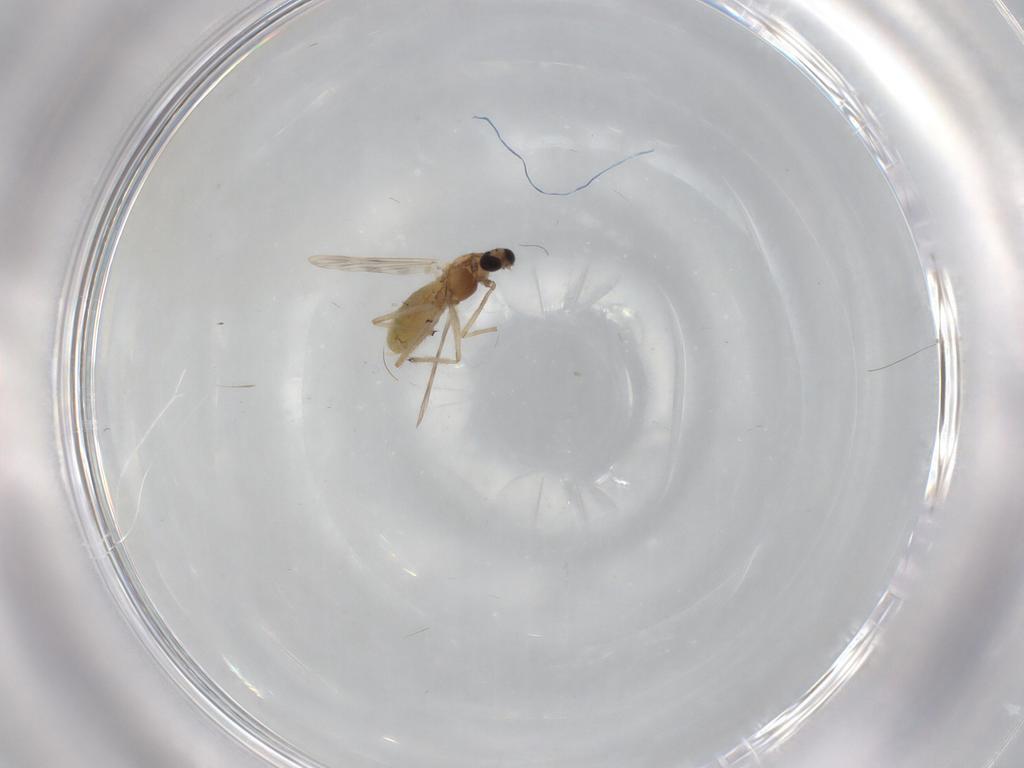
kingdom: Animalia
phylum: Arthropoda
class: Insecta
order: Diptera
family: Chironomidae
